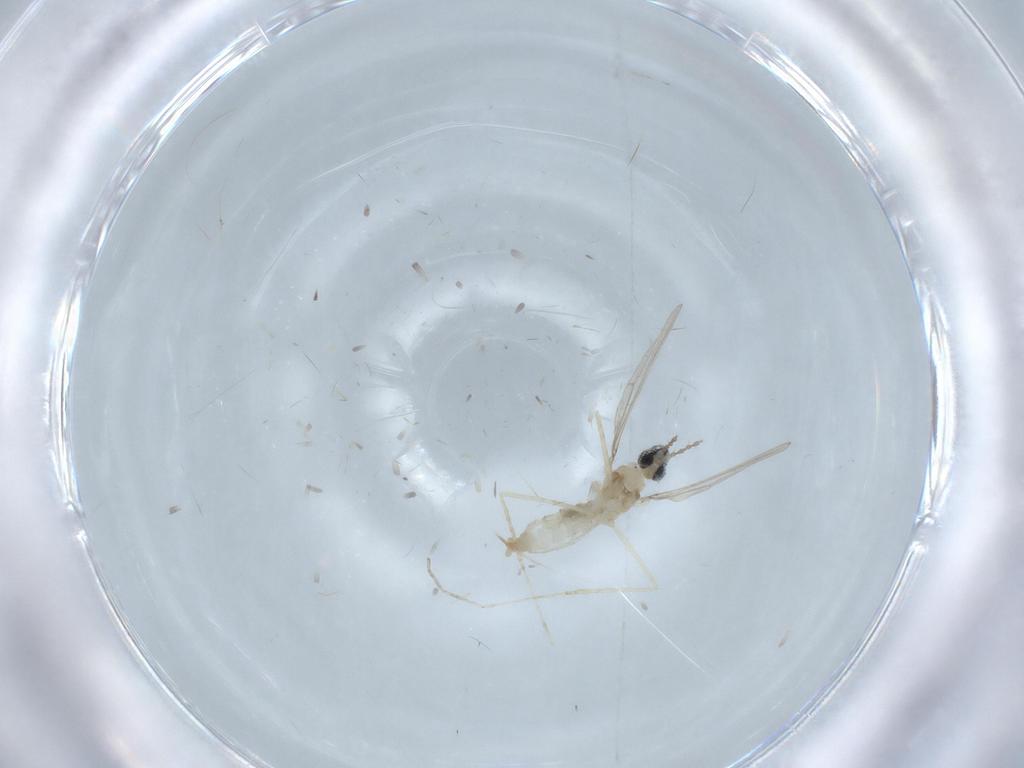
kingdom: Animalia
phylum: Arthropoda
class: Insecta
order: Diptera
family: Cecidomyiidae
